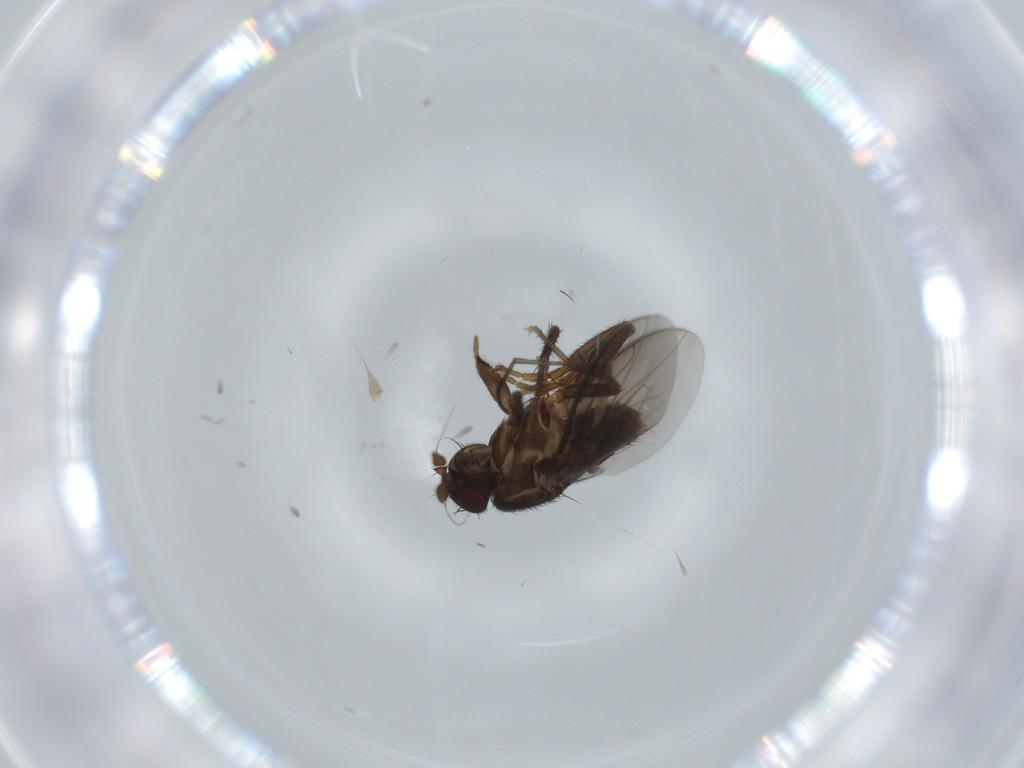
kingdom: Animalia
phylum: Arthropoda
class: Insecta
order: Diptera
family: Sphaeroceridae
